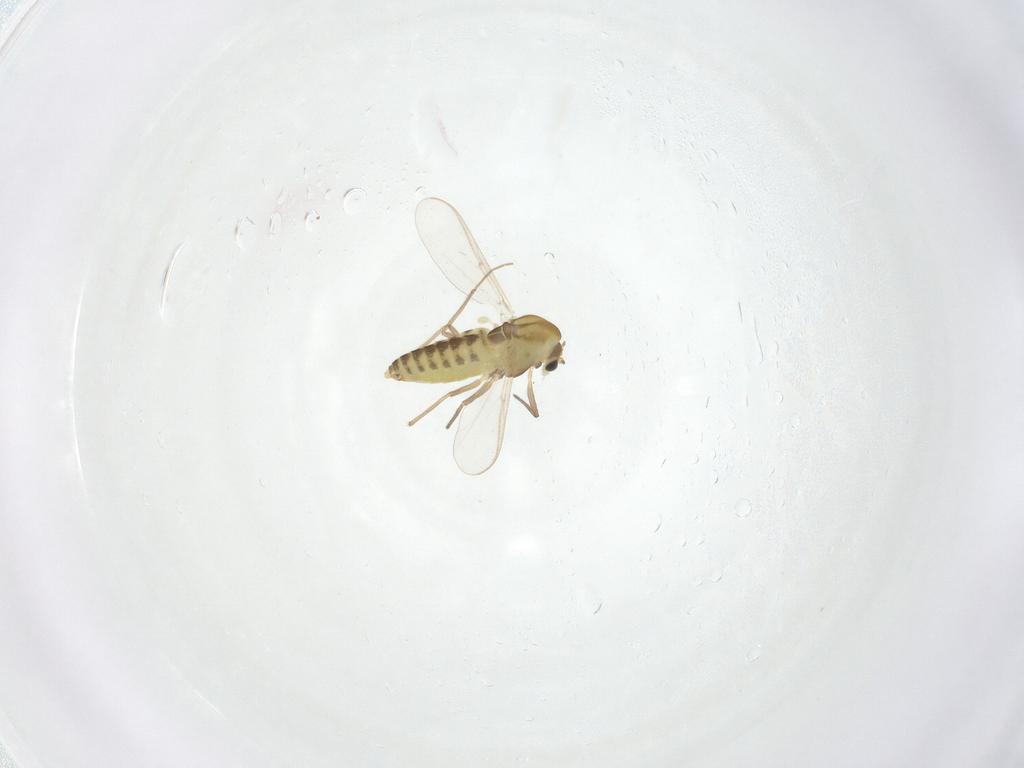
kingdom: Animalia
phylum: Arthropoda
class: Insecta
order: Diptera
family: Chironomidae
